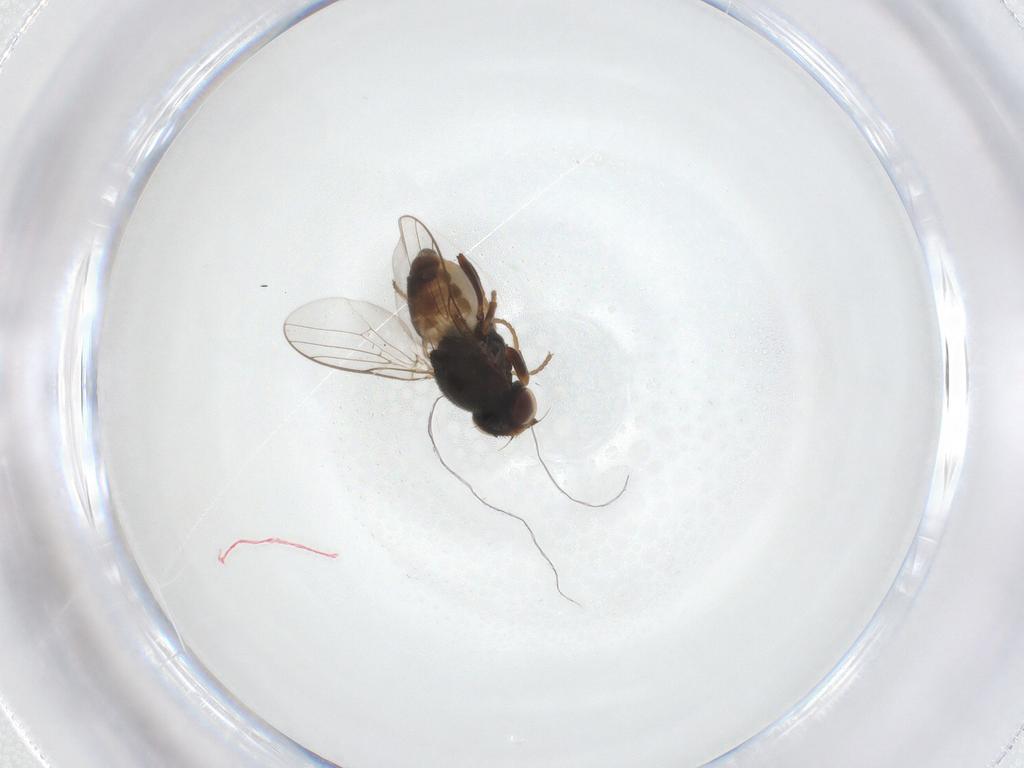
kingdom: Animalia
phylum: Arthropoda
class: Insecta
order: Diptera
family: Chloropidae
